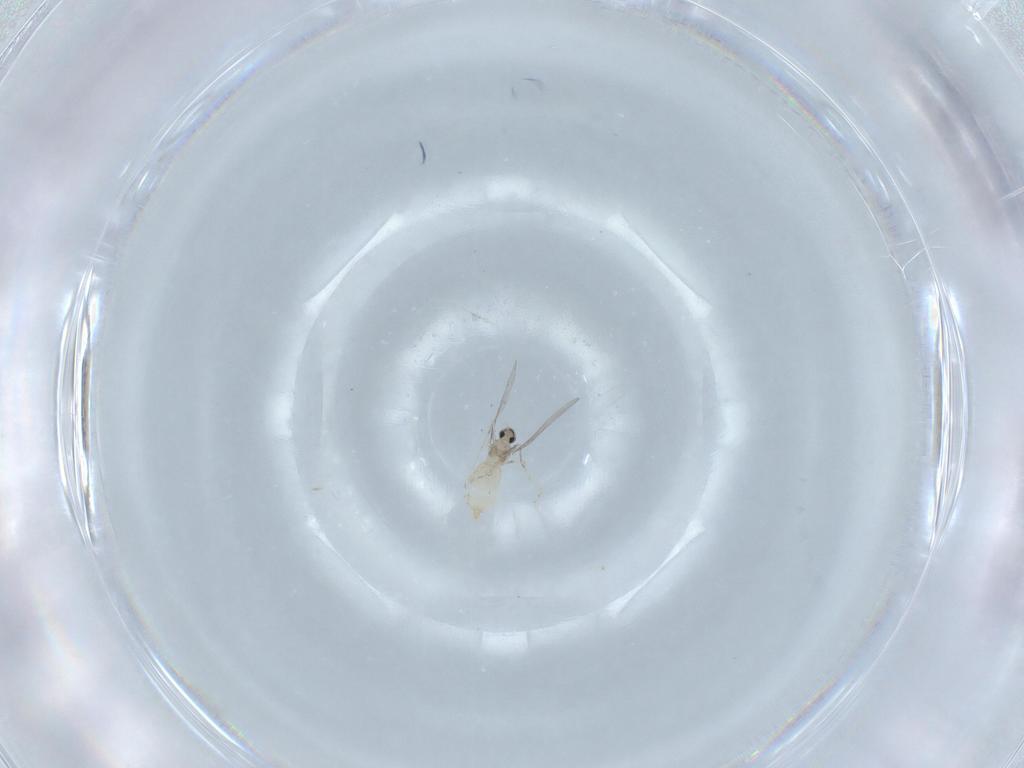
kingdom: Animalia
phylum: Arthropoda
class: Insecta
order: Diptera
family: Cecidomyiidae
